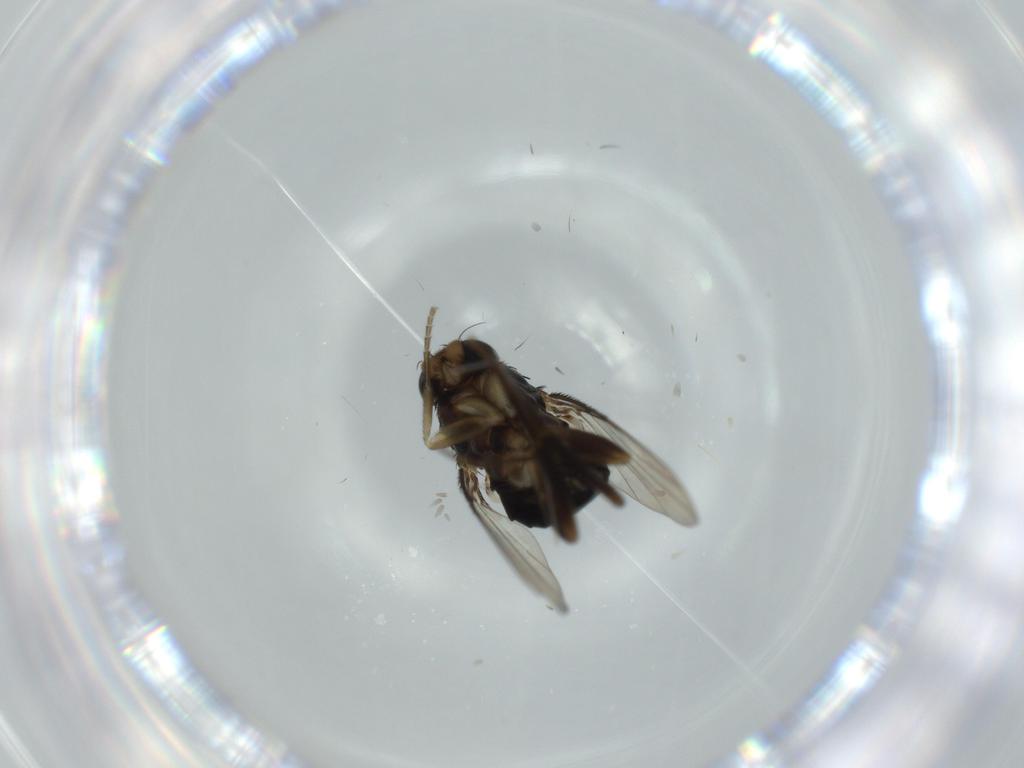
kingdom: Animalia
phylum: Arthropoda
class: Insecta
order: Diptera
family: Phoridae
